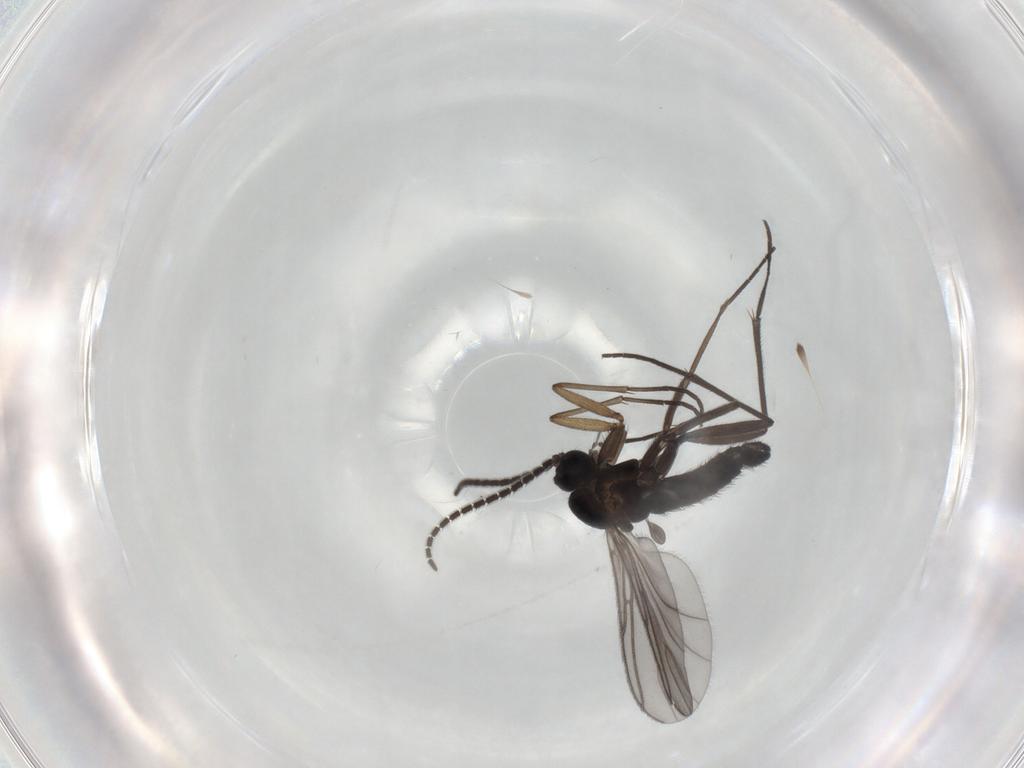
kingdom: Animalia
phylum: Arthropoda
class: Insecta
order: Diptera
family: Sciaridae
